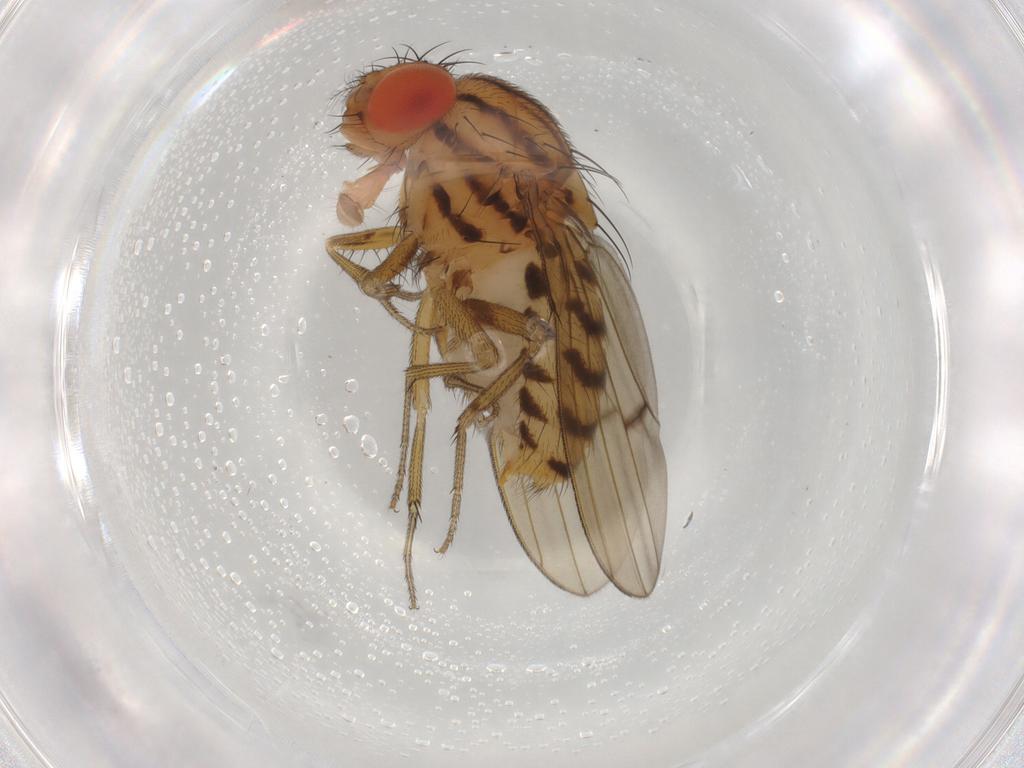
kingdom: Animalia
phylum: Arthropoda
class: Insecta
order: Diptera
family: Drosophilidae
